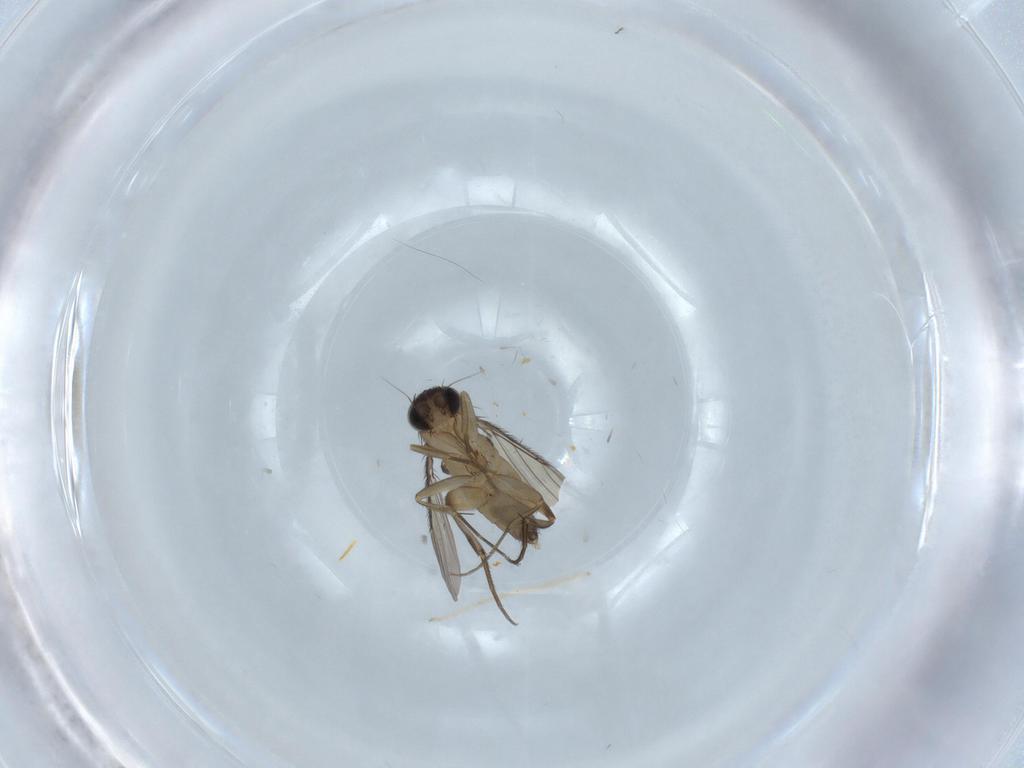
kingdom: Animalia
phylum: Arthropoda
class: Insecta
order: Diptera
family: Phoridae
